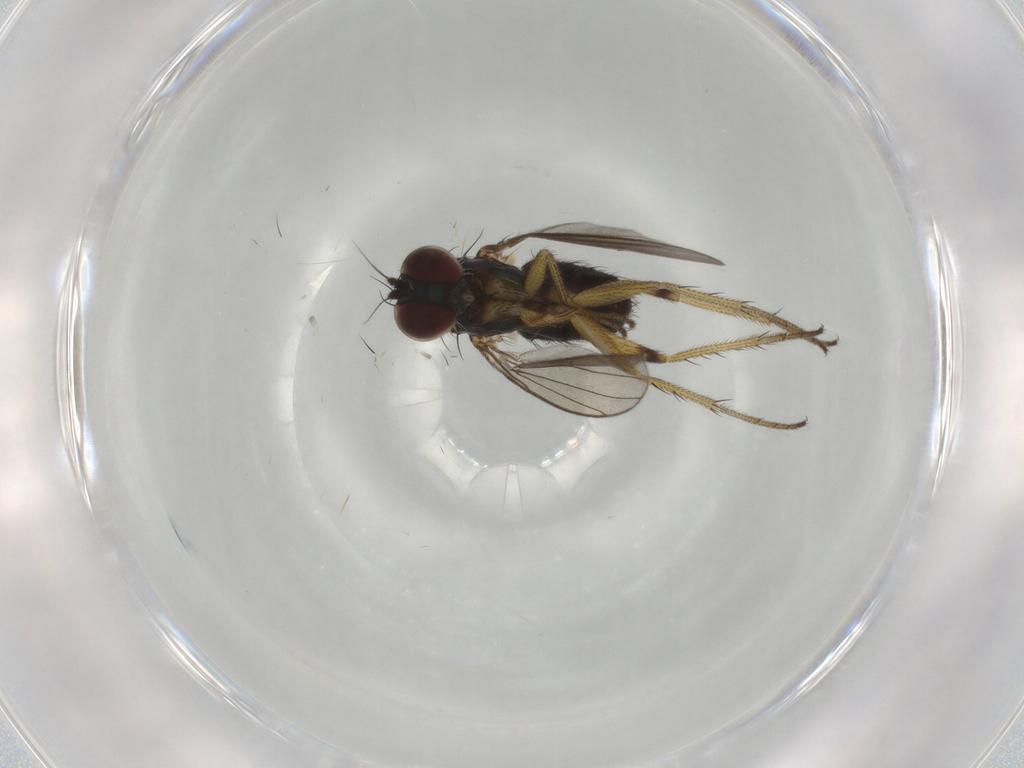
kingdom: Animalia
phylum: Arthropoda
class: Insecta
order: Diptera
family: Dolichopodidae
